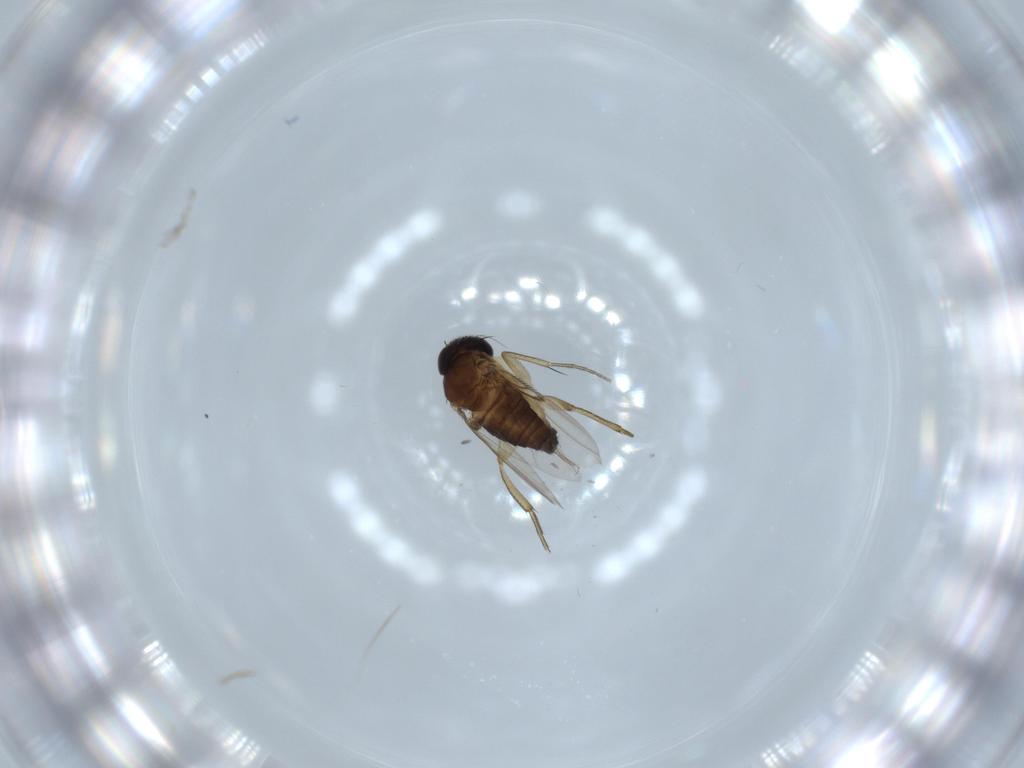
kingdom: Animalia
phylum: Arthropoda
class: Insecta
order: Diptera
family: Phoridae
